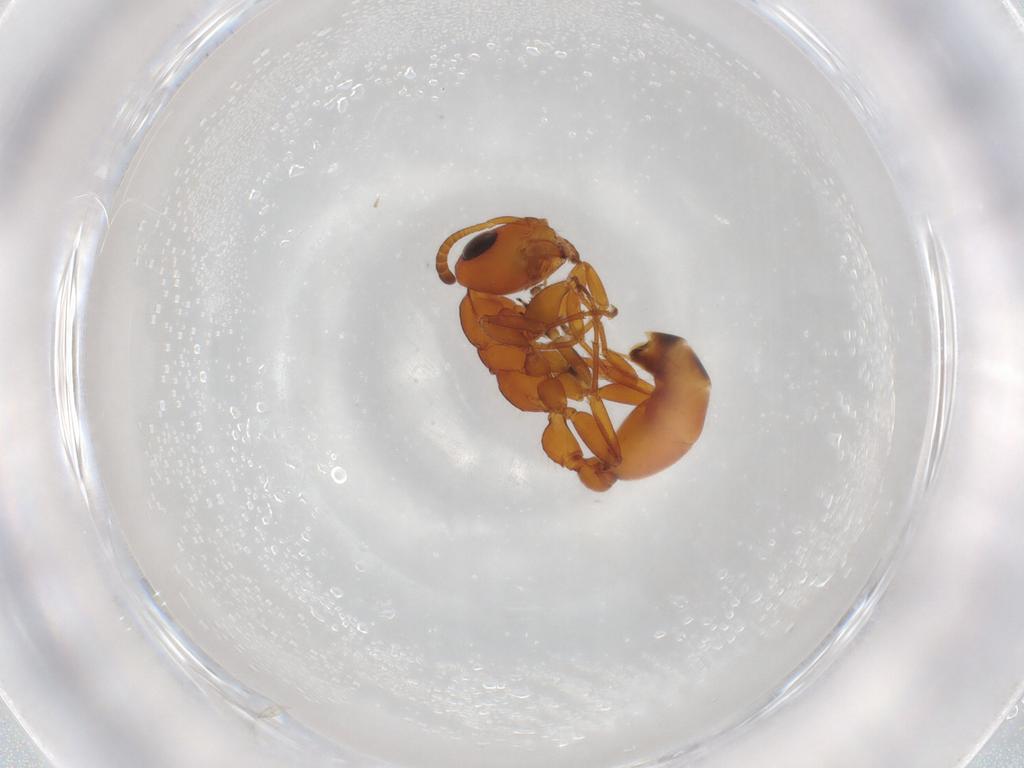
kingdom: Animalia
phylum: Arthropoda
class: Insecta
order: Hymenoptera
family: Formicidae
